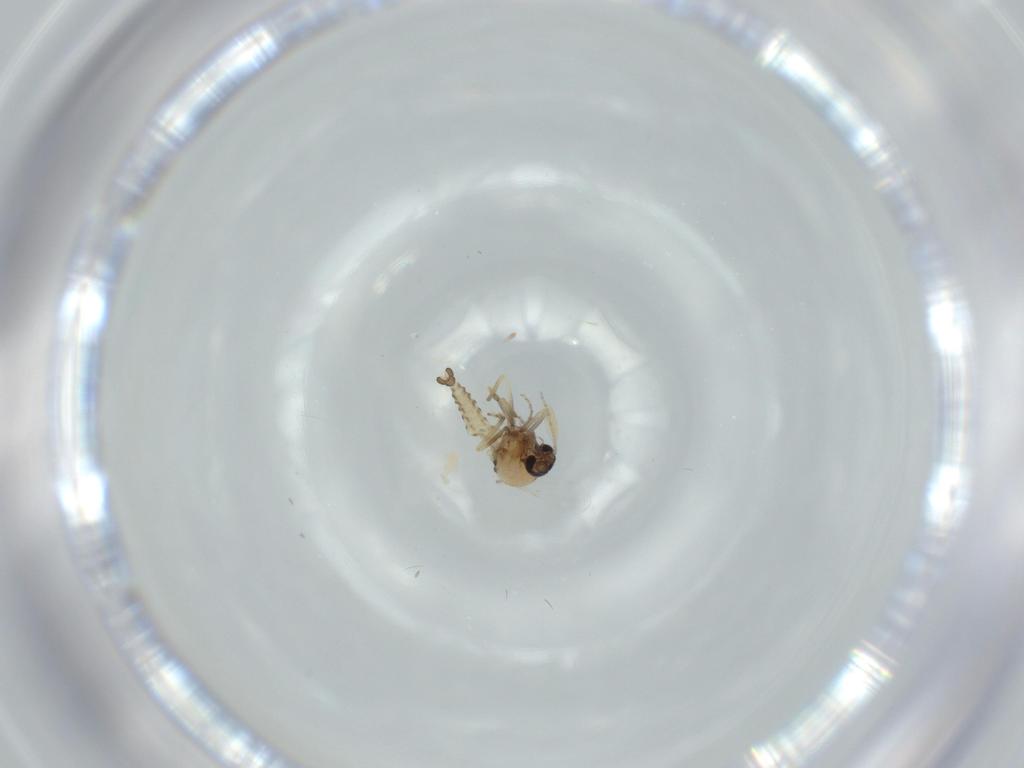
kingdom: Animalia
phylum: Arthropoda
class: Insecta
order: Diptera
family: Ceratopogonidae
